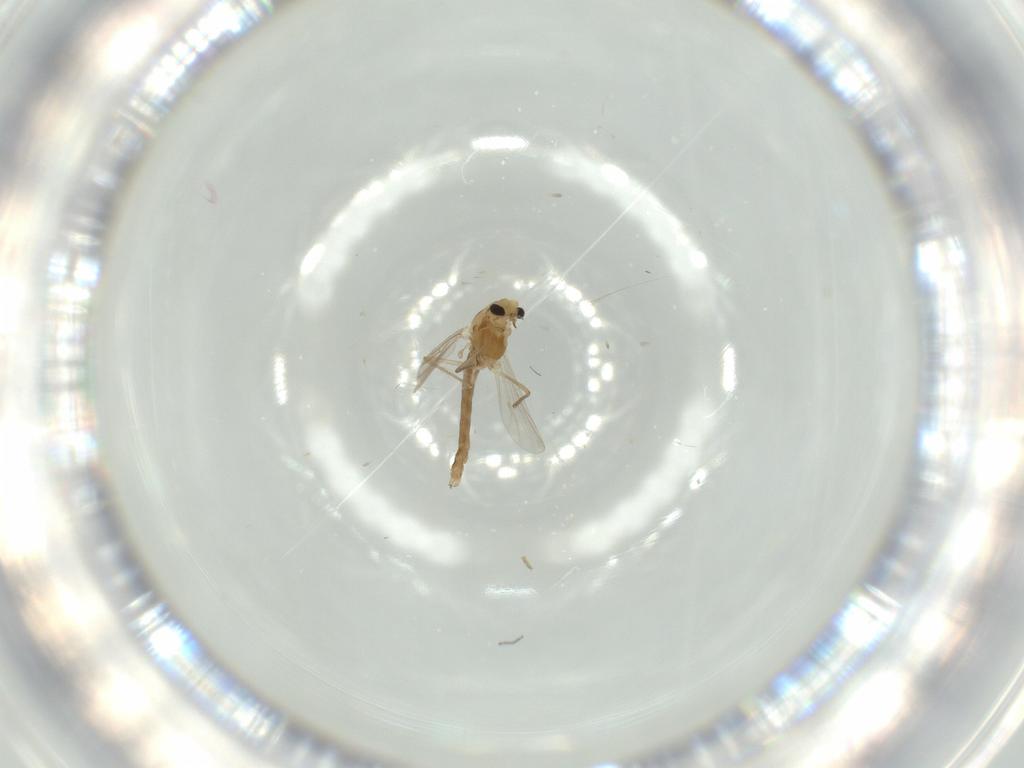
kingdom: Animalia
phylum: Arthropoda
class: Insecta
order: Diptera
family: Chironomidae
